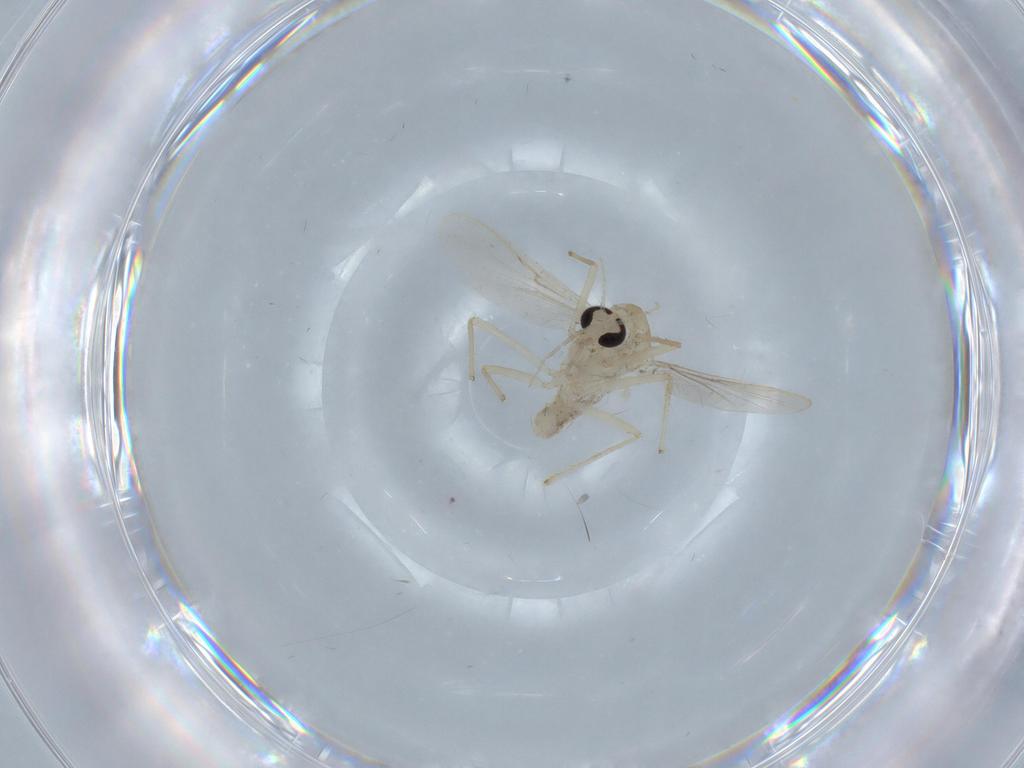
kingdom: Animalia
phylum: Arthropoda
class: Insecta
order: Diptera
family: Chironomidae
